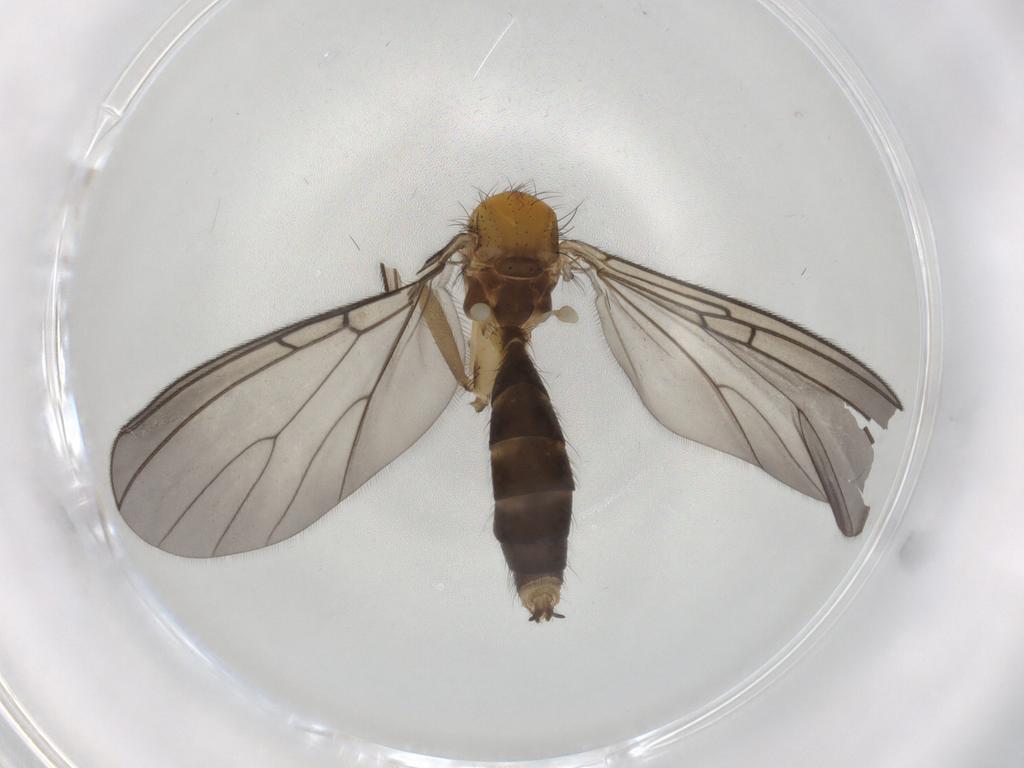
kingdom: Animalia
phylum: Arthropoda
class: Insecta
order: Diptera
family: Mycetophilidae
